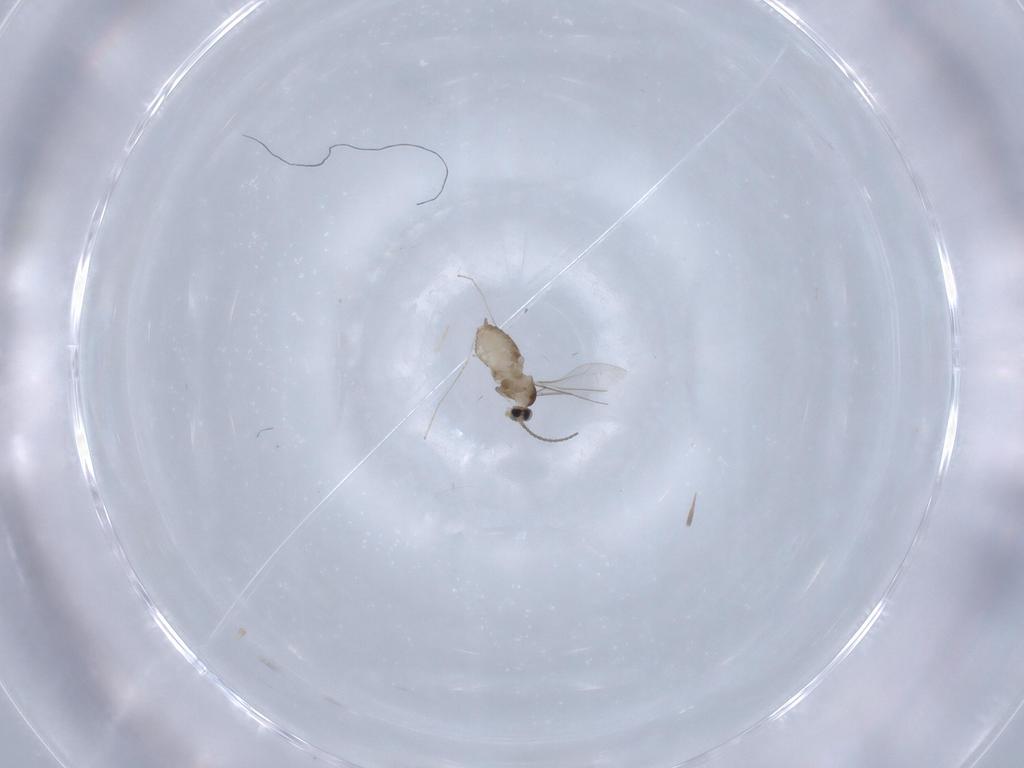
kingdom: Animalia
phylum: Arthropoda
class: Insecta
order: Diptera
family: Cecidomyiidae
